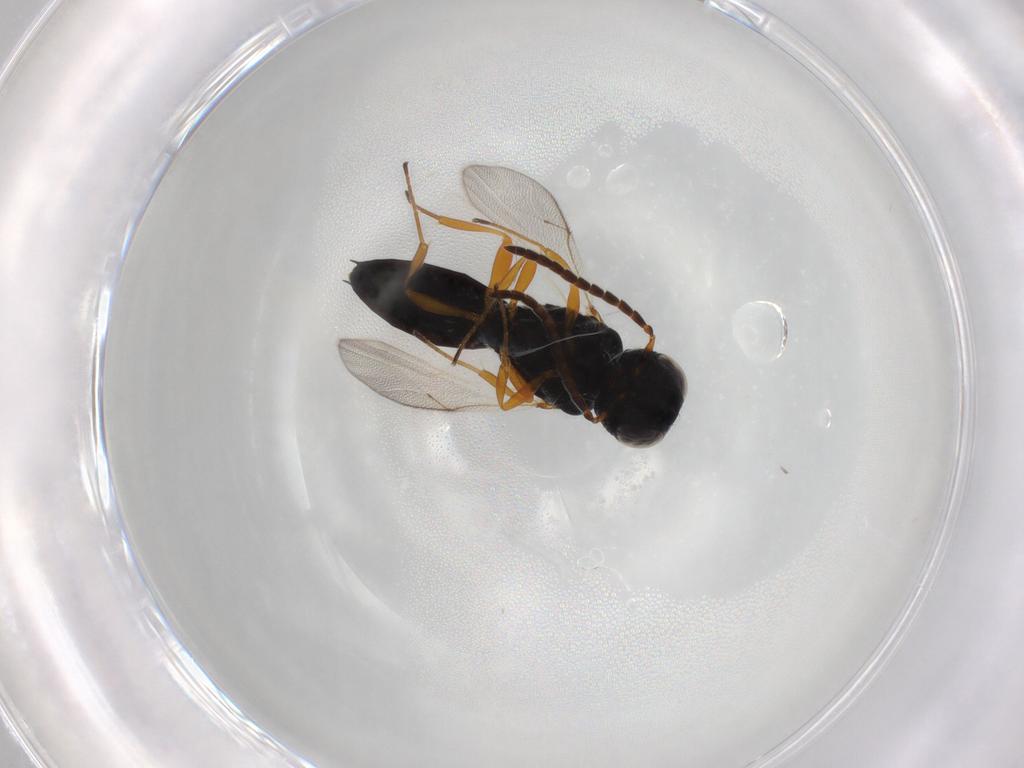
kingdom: Animalia
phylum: Arthropoda
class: Insecta
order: Hymenoptera
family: Scelionidae
